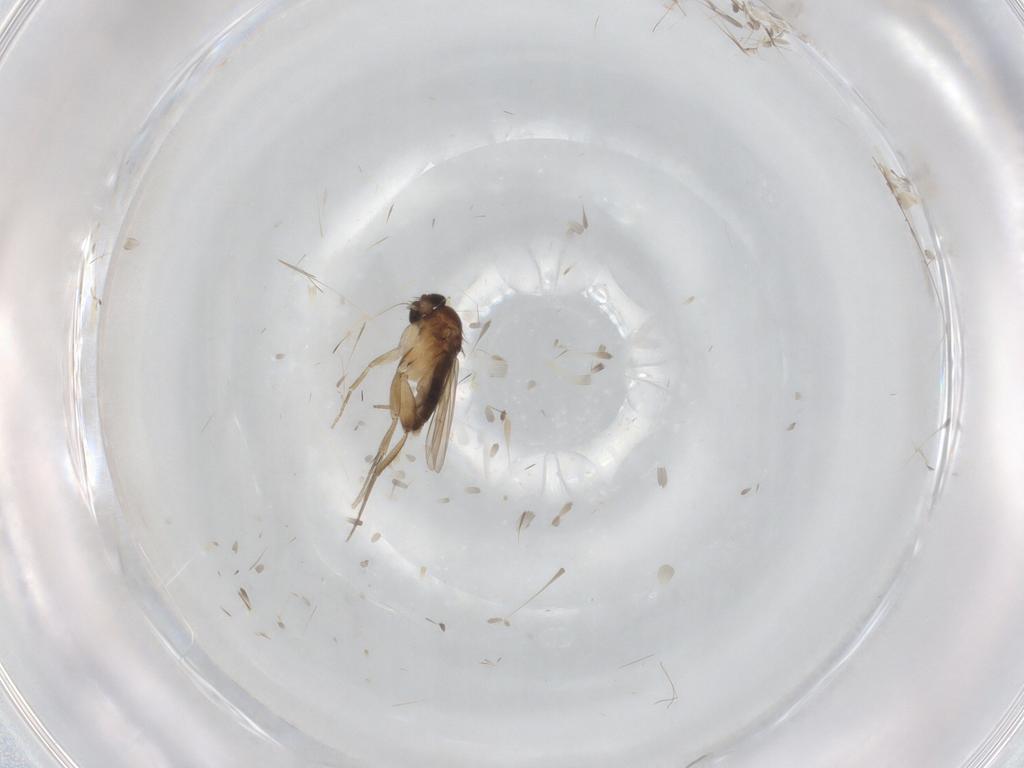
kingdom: Animalia
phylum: Arthropoda
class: Insecta
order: Diptera
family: Phoridae
